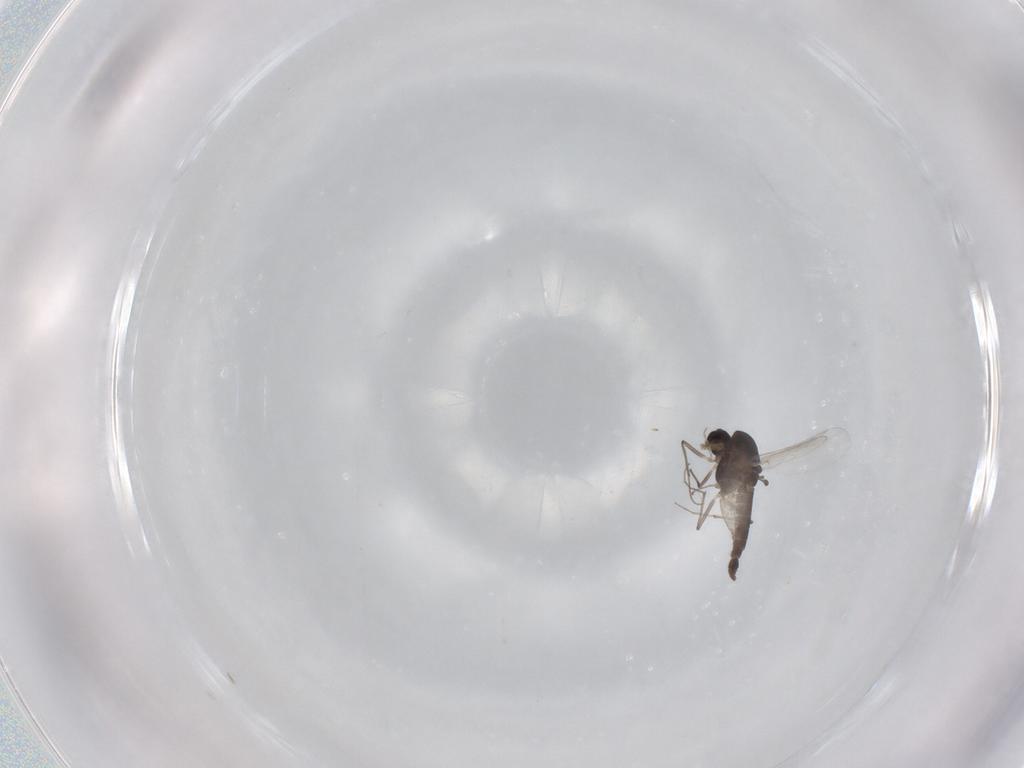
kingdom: Animalia
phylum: Arthropoda
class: Insecta
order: Diptera
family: Chironomidae
